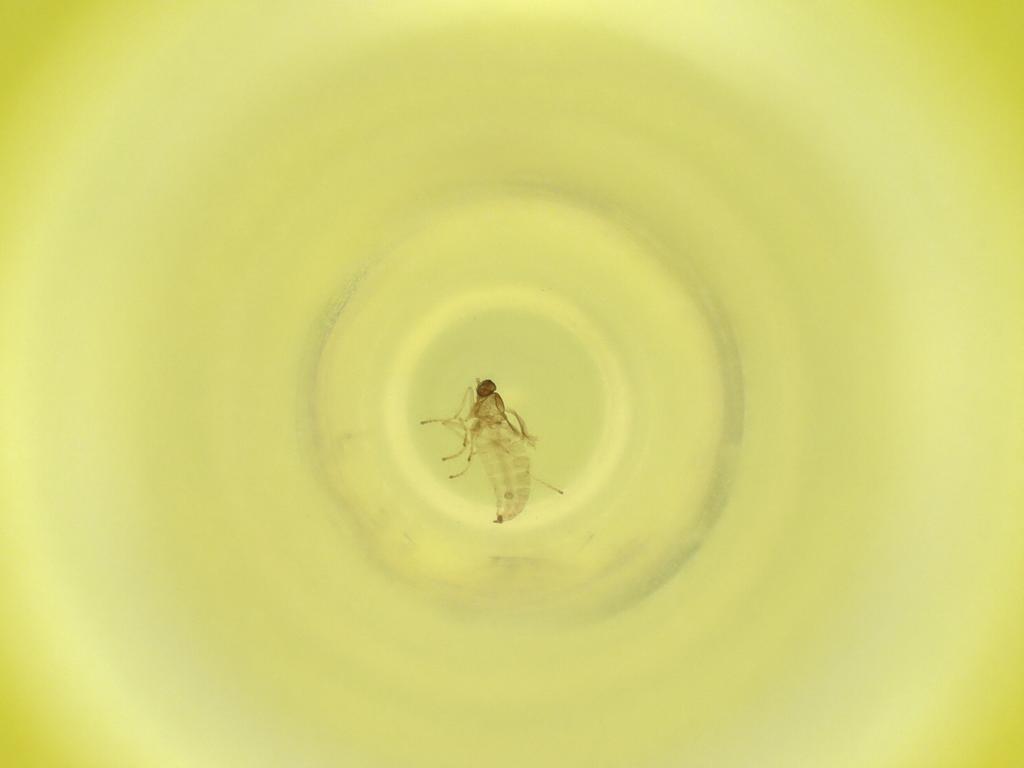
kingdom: Animalia
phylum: Arthropoda
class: Insecta
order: Diptera
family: Cecidomyiidae
